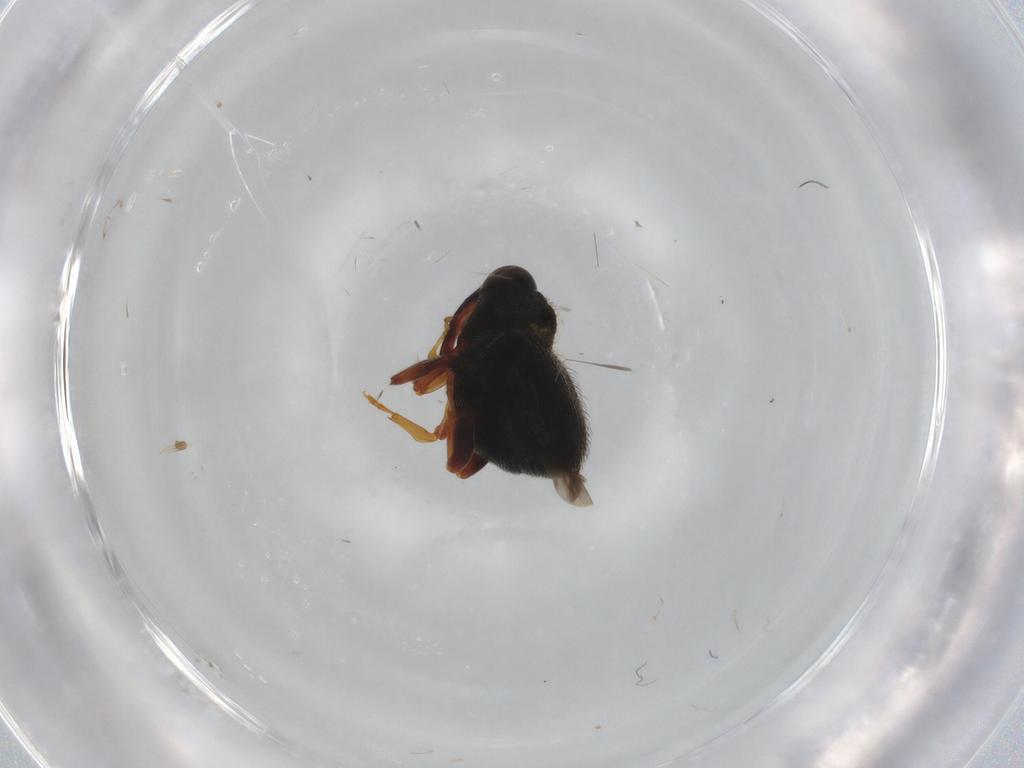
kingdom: Animalia
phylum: Arthropoda
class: Insecta
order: Coleoptera
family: Curculionidae
